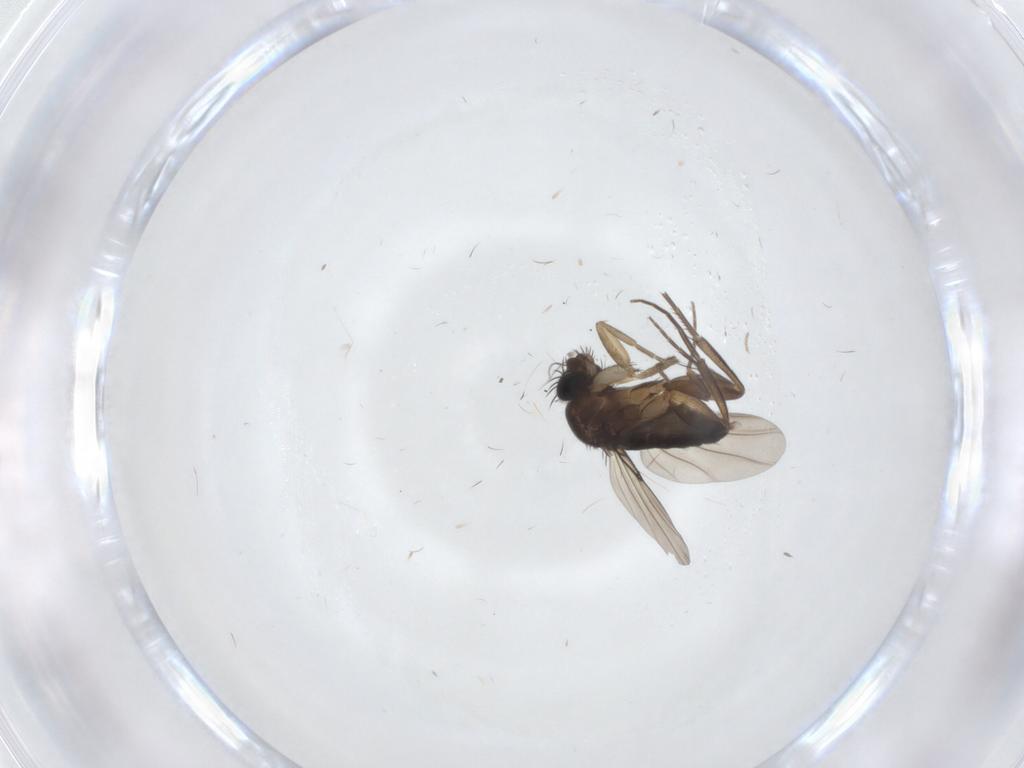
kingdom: Animalia
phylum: Arthropoda
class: Insecta
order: Diptera
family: Phoridae
